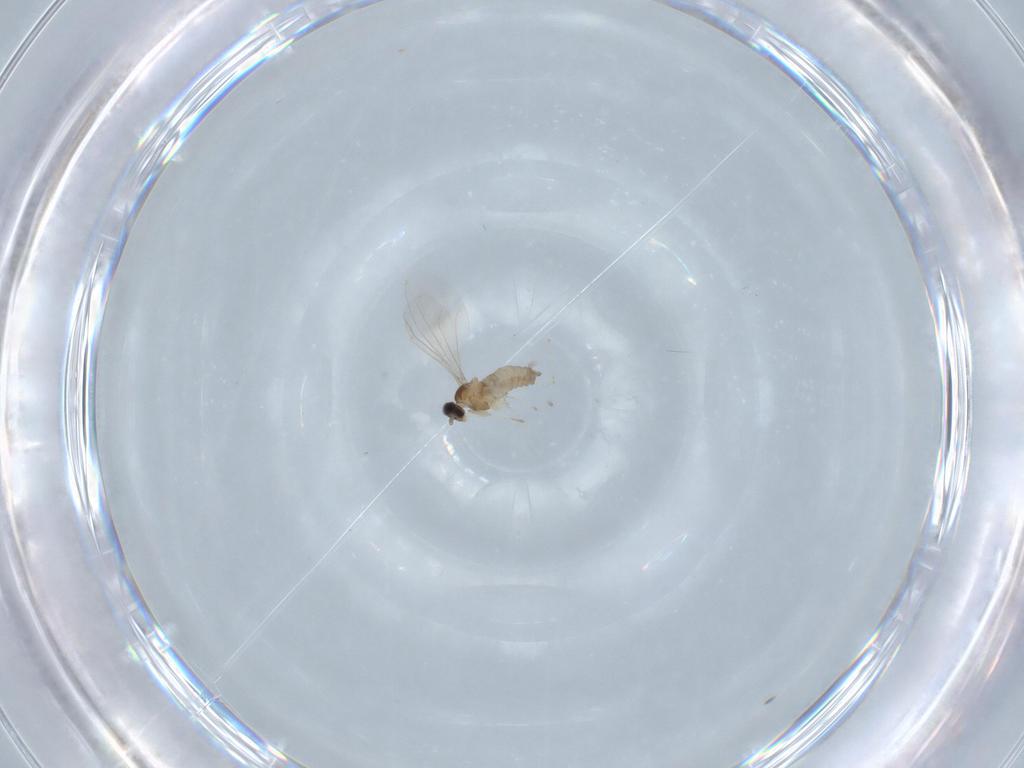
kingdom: Animalia
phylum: Arthropoda
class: Insecta
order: Diptera
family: Cecidomyiidae
